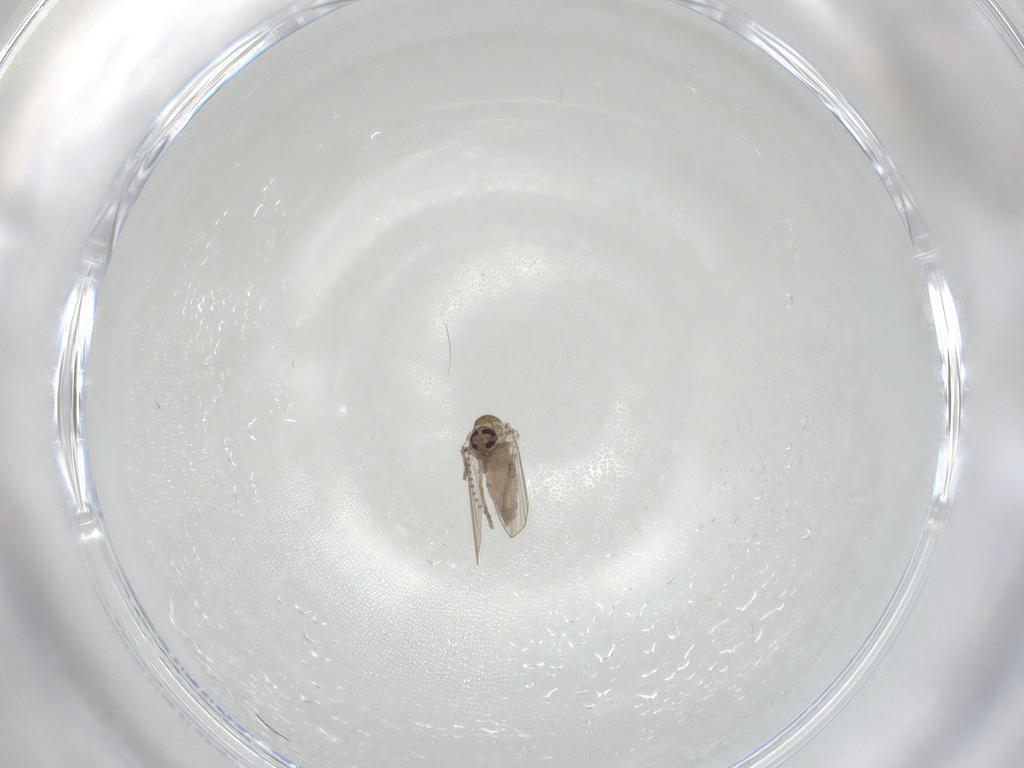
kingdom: Animalia
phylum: Arthropoda
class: Insecta
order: Diptera
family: Psychodidae
